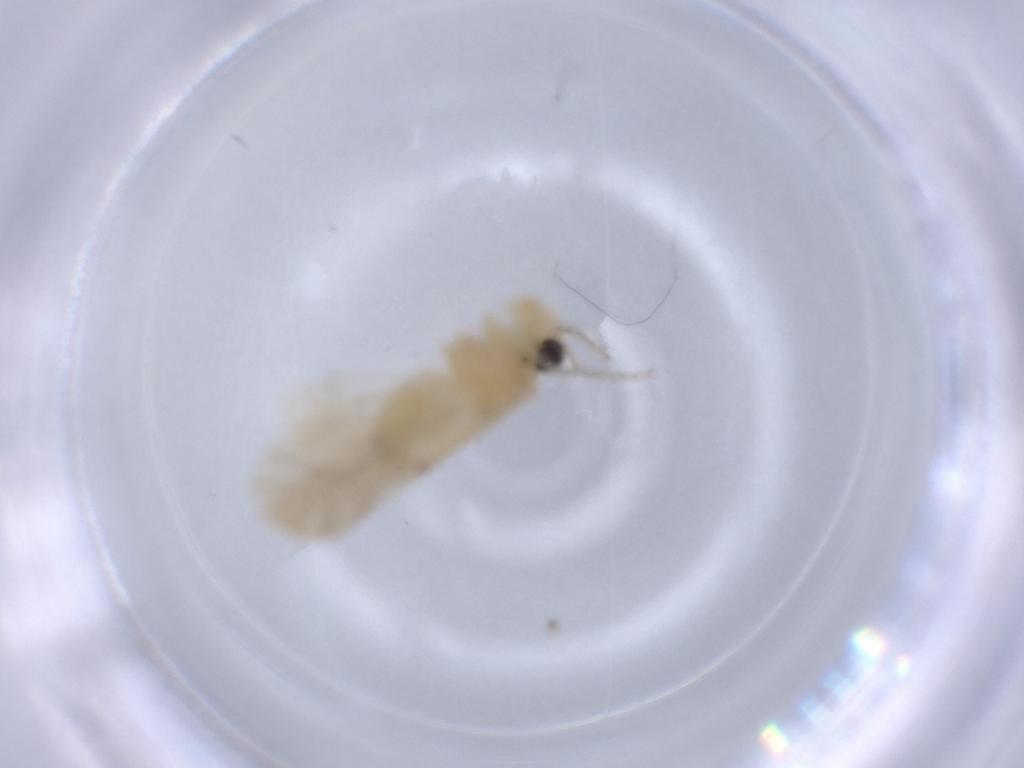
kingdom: Animalia
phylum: Arthropoda
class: Insecta
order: Psocodea
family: Caeciliusidae
